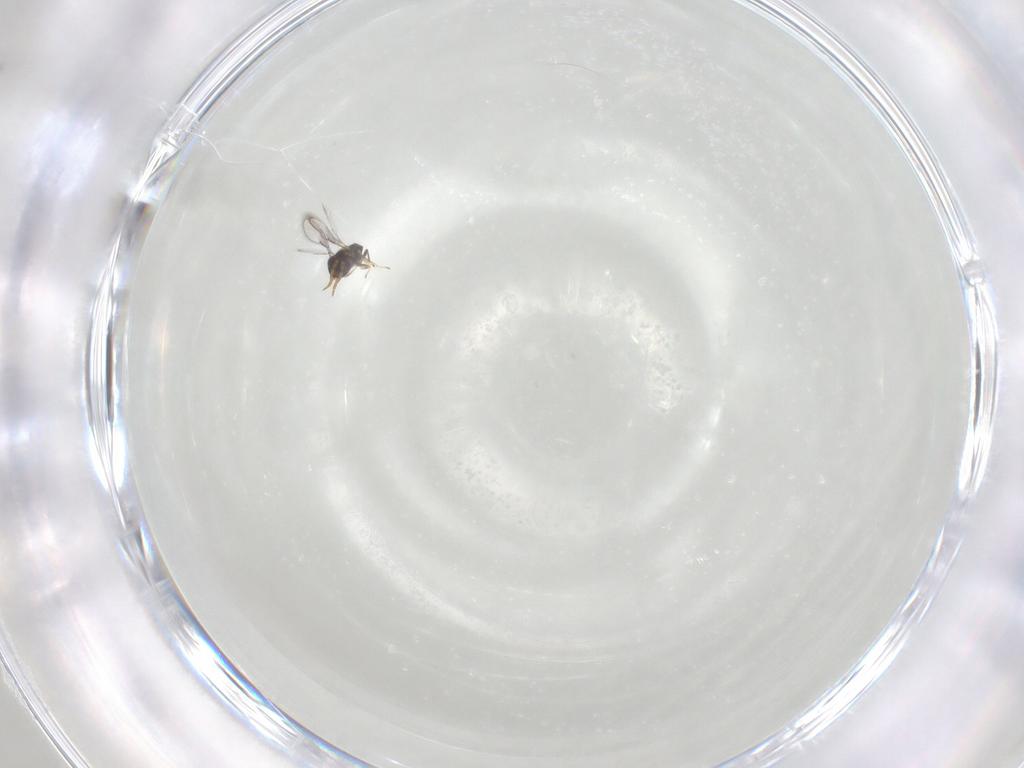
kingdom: Animalia
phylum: Arthropoda
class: Insecta
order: Hymenoptera
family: Aphelinidae
